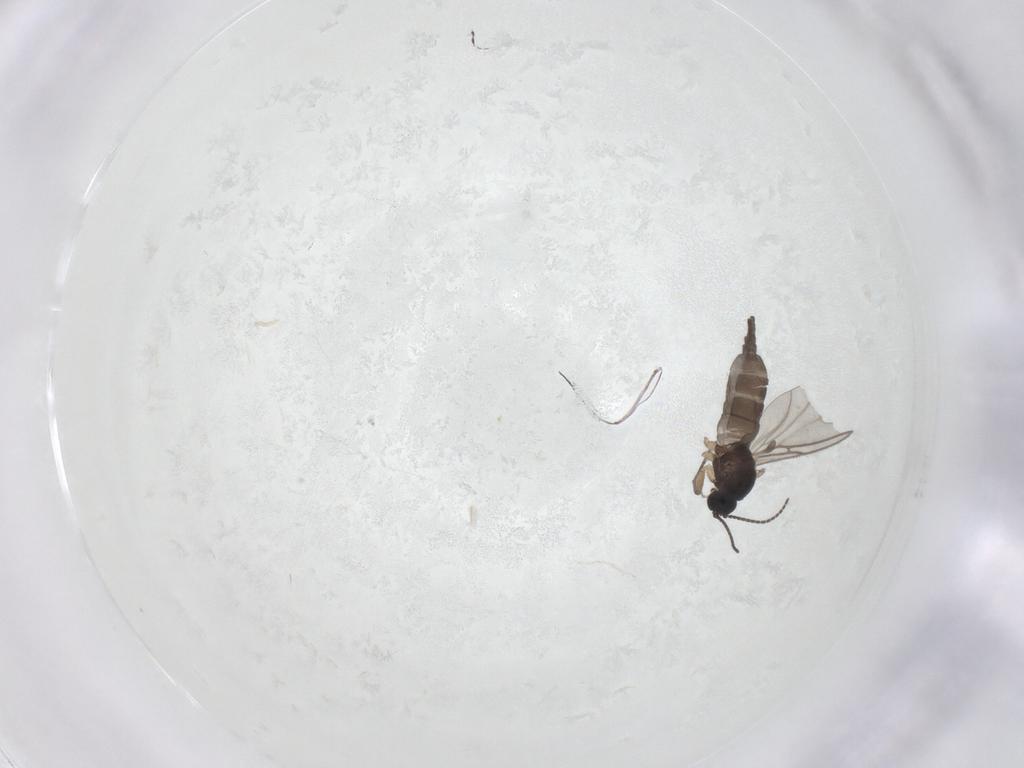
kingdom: Animalia
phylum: Arthropoda
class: Insecta
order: Diptera
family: Sciaridae
